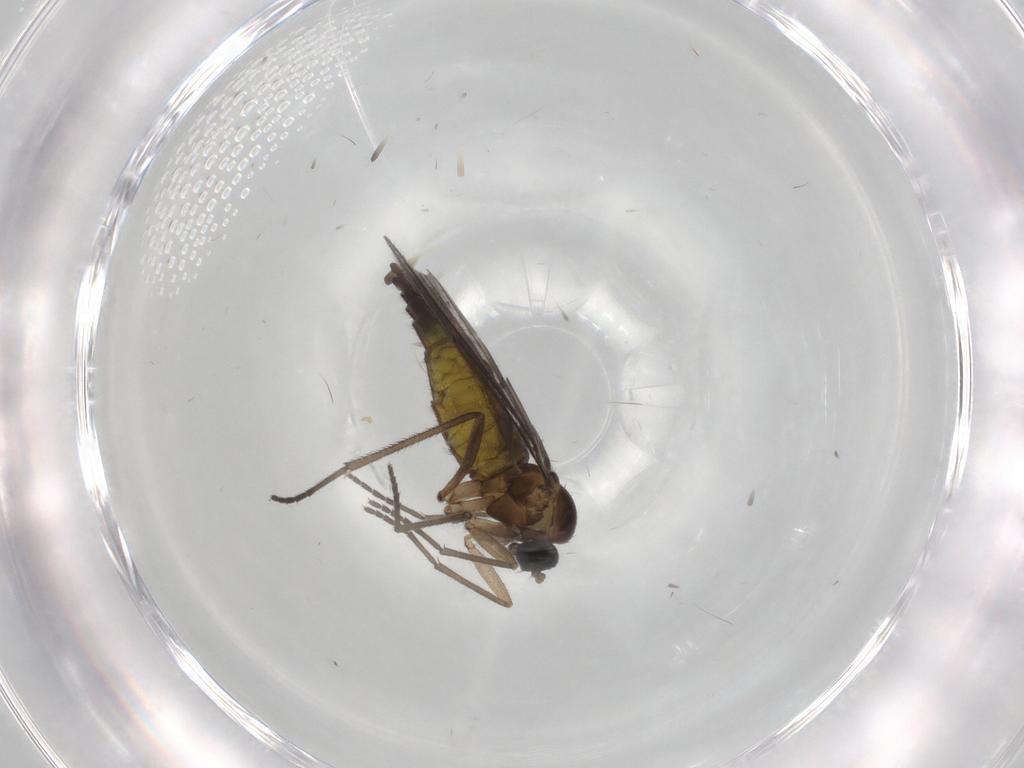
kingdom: Animalia
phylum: Arthropoda
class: Insecta
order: Diptera
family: Sciaridae
